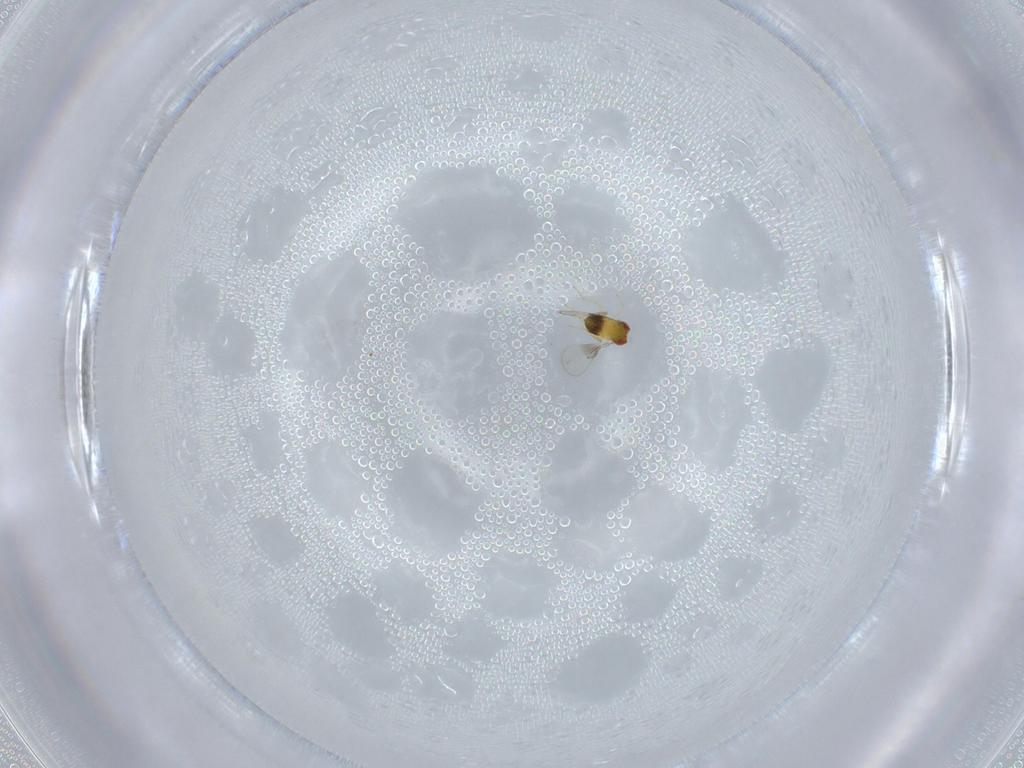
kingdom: Animalia
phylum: Arthropoda
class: Insecta
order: Hymenoptera
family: Trichogrammatidae
